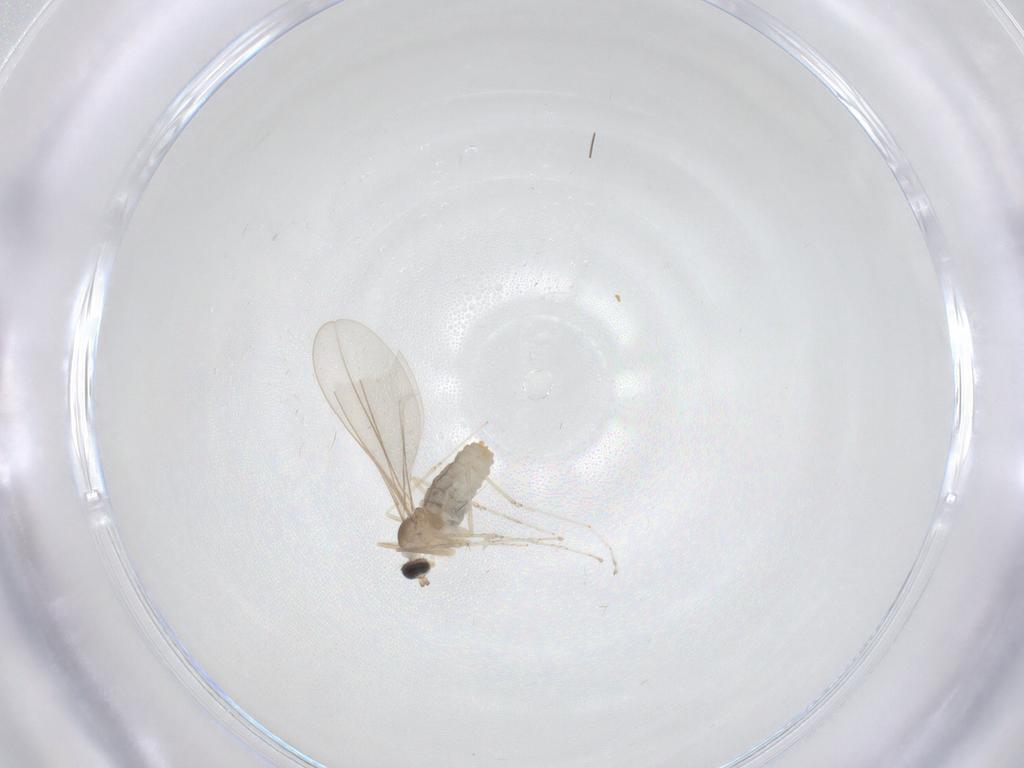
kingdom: Animalia
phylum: Arthropoda
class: Insecta
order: Diptera
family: Cecidomyiidae
